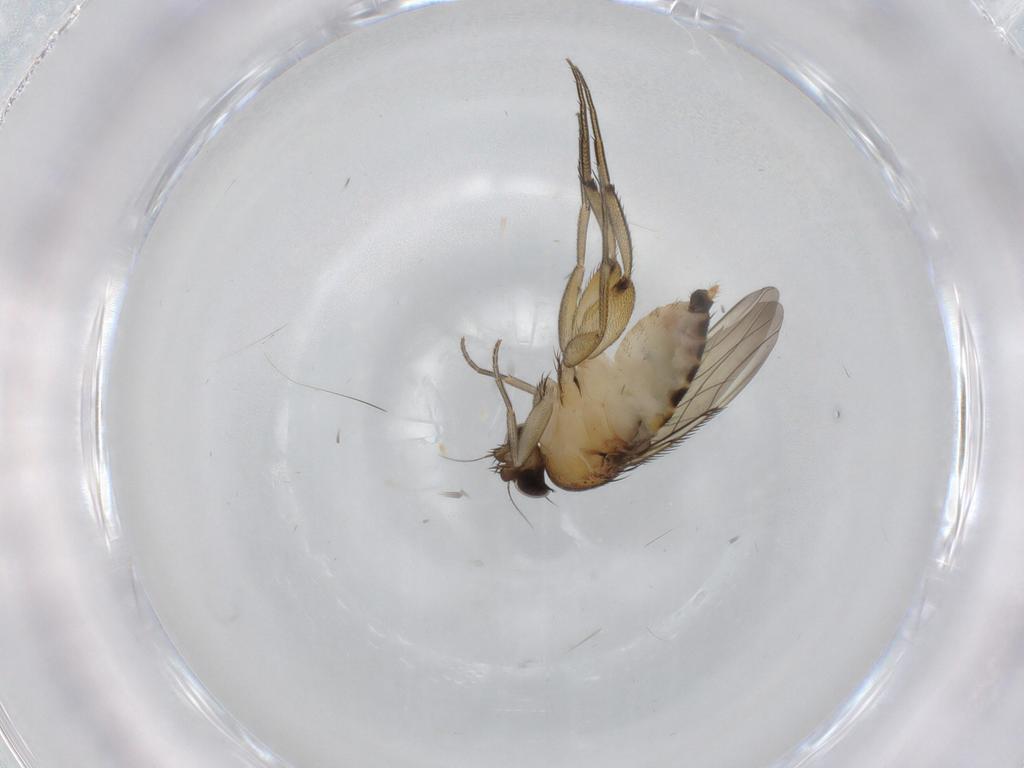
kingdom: Animalia
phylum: Arthropoda
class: Insecta
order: Diptera
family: Phoridae
